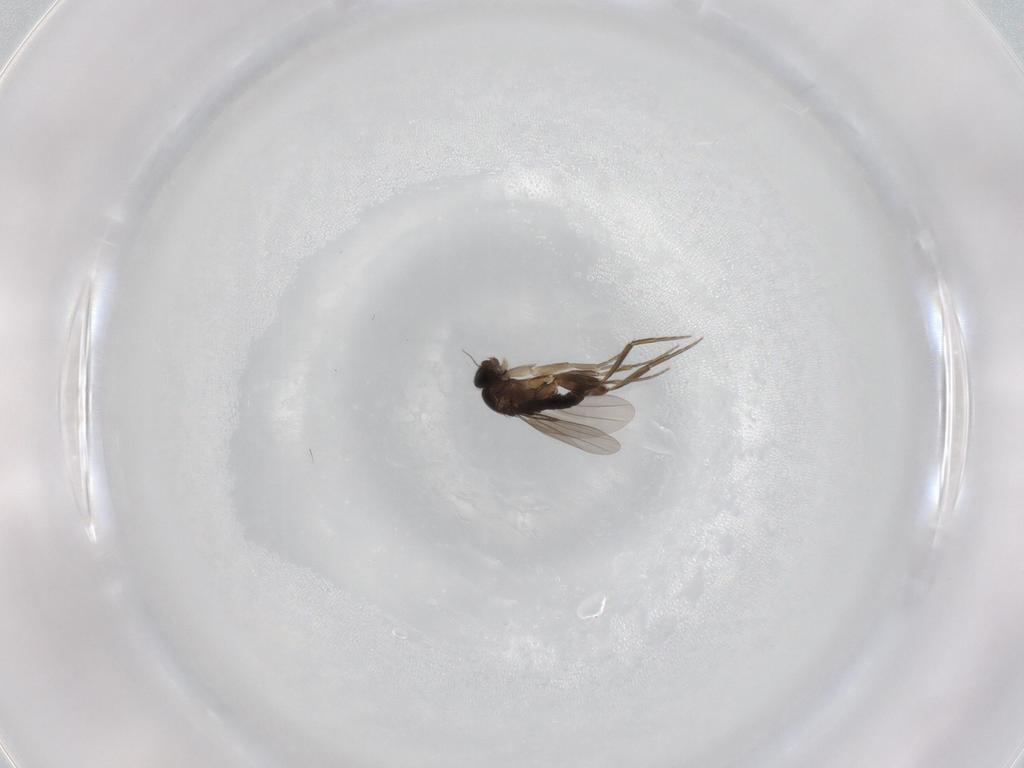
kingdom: Animalia
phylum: Arthropoda
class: Insecta
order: Diptera
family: Phoridae
